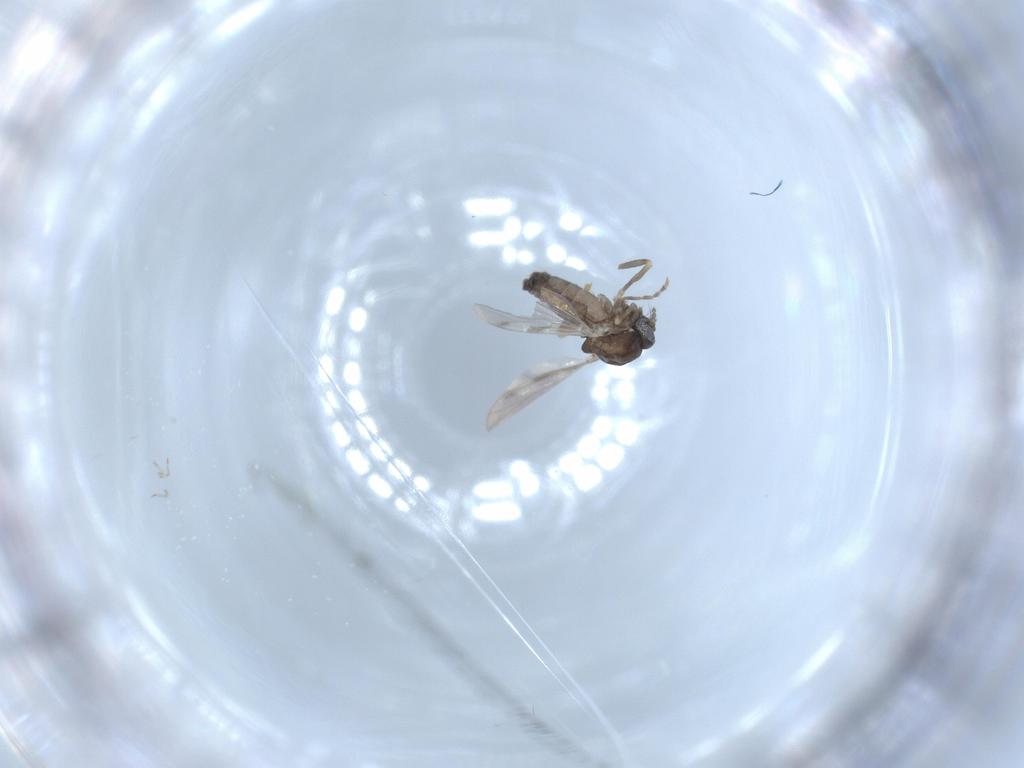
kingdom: Animalia
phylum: Arthropoda
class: Insecta
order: Diptera
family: Ceratopogonidae
